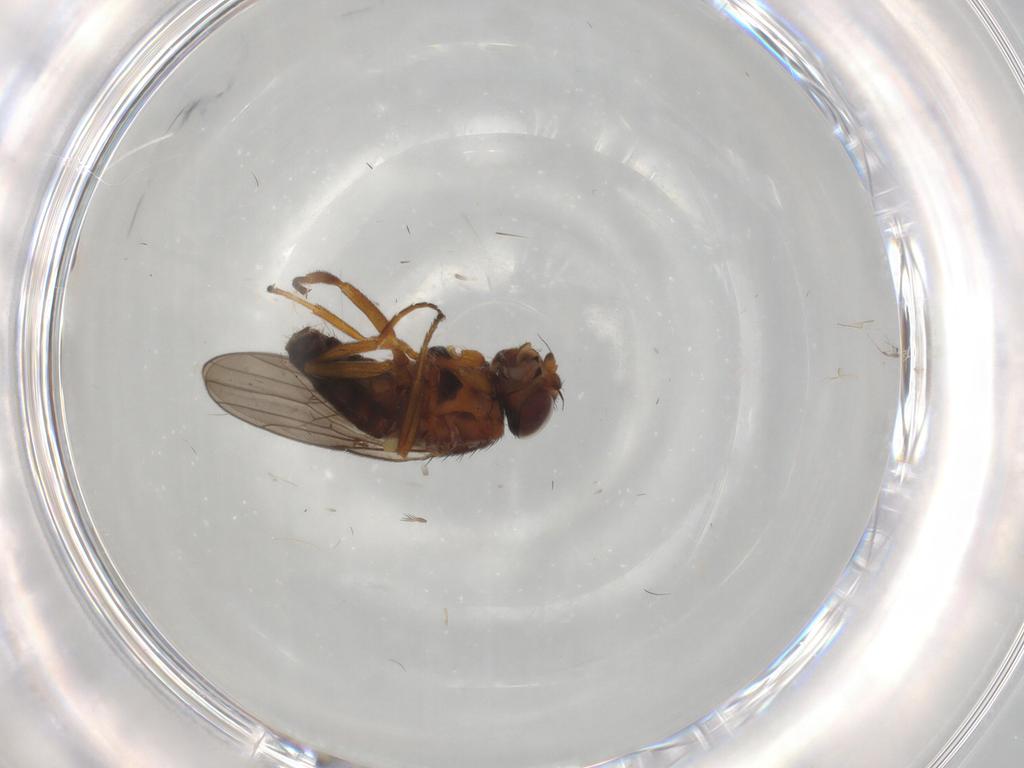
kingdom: Animalia
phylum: Arthropoda
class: Insecta
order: Diptera
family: Chloropidae
